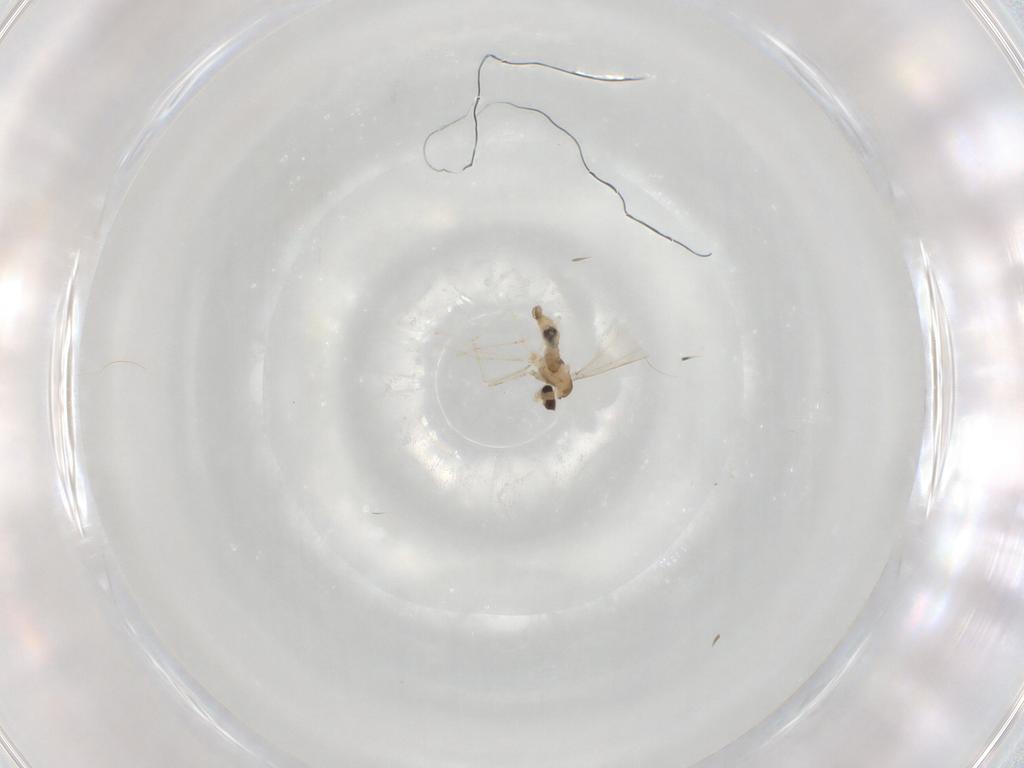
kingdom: Animalia
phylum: Arthropoda
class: Insecta
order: Diptera
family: Cecidomyiidae
